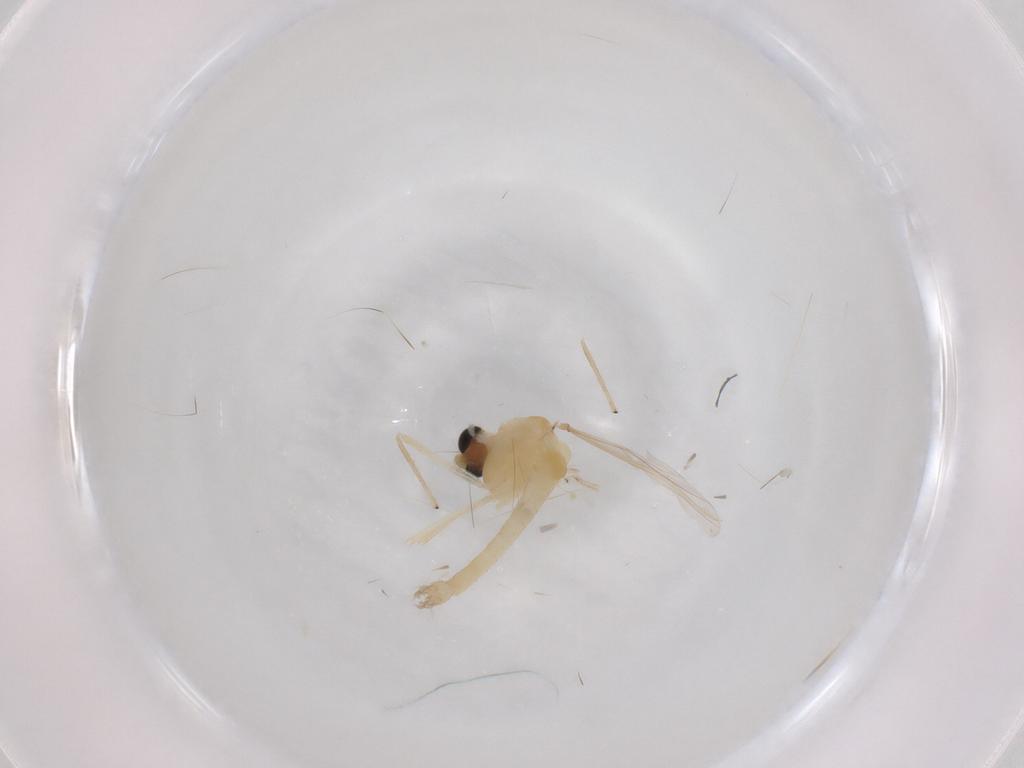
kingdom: Animalia
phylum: Arthropoda
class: Insecta
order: Diptera
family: Chironomidae
